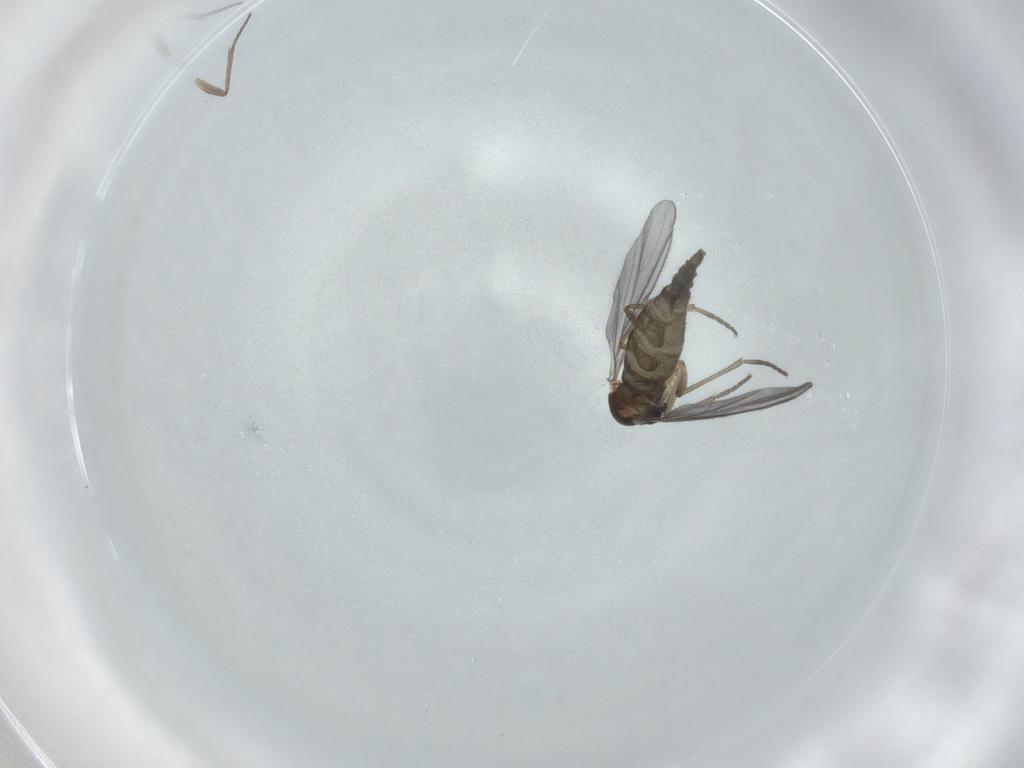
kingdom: Animalia
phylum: Arthropoda
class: Insecta
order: Diptera
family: Sciaridae
